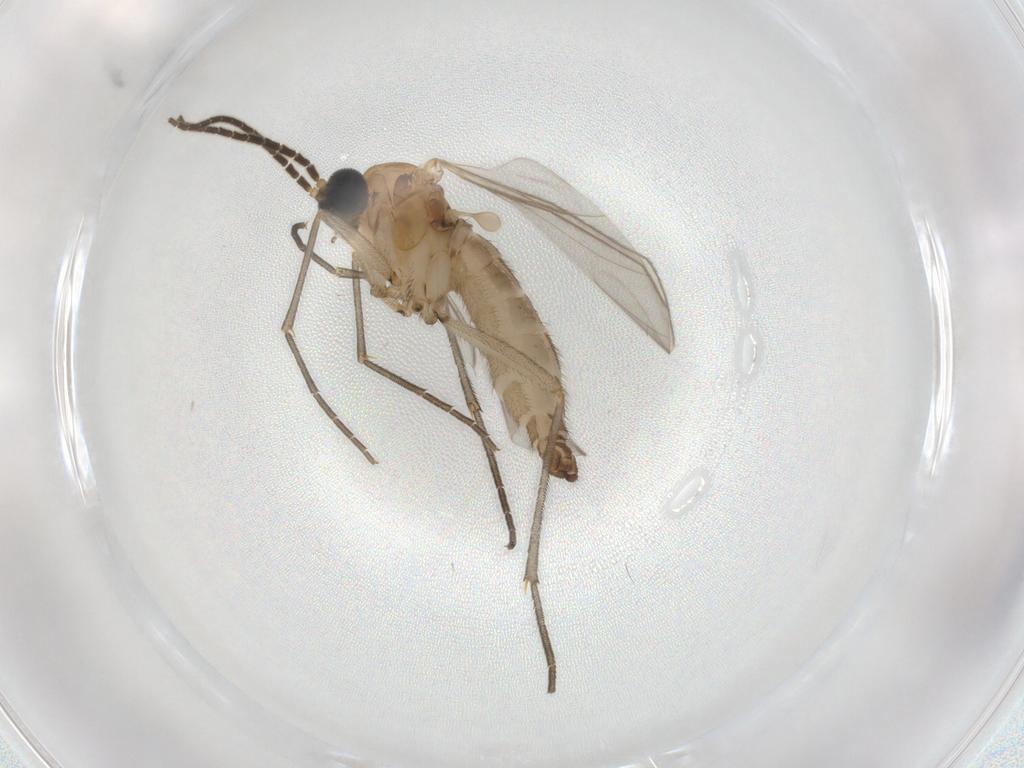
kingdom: Animalia
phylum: Arthropoda
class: Insecta
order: Diptera
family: Sciaridae
